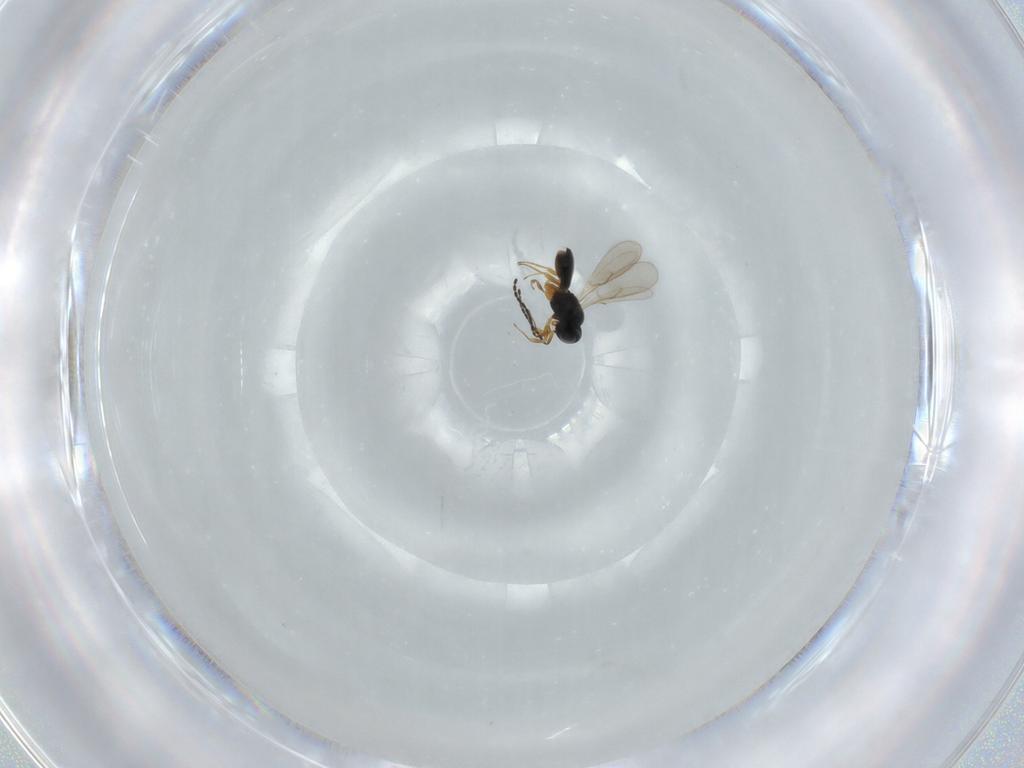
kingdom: Animalia
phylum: Arthropoda
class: Insecta
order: Hymenoptera
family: Scelionidae
